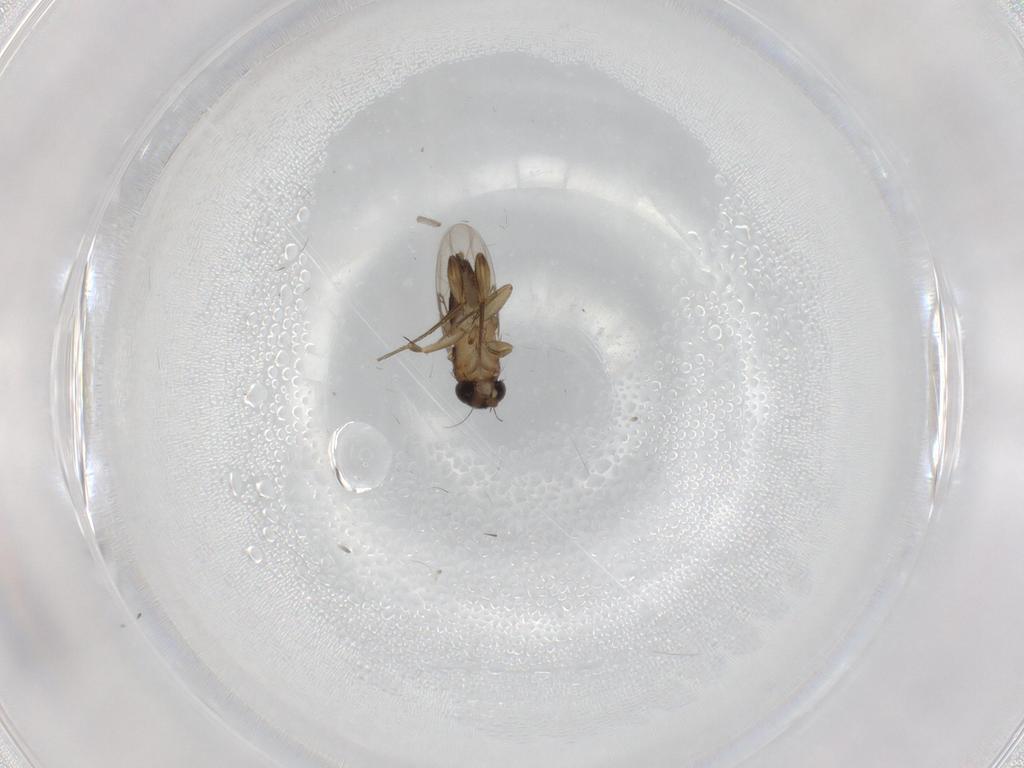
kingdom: Animalia
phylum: Arthropoda
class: Insecta
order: Diptera
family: Phoridae
